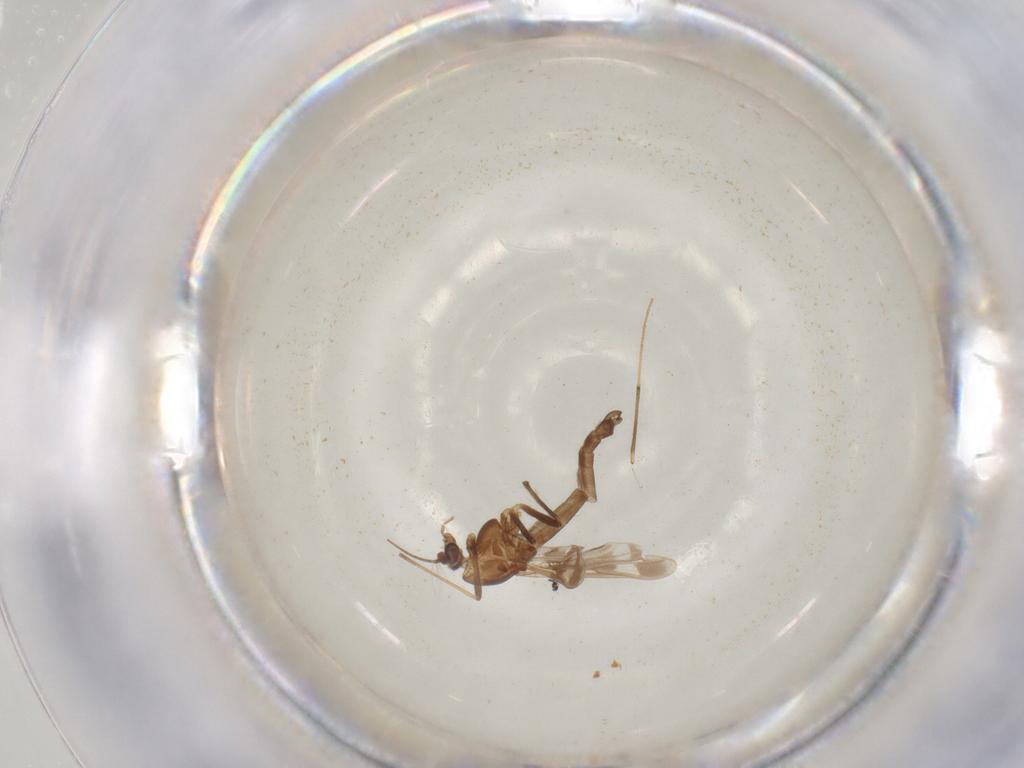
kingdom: Animalia
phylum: Arthropoda
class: Insecta
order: Diptera
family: Chironomidae
